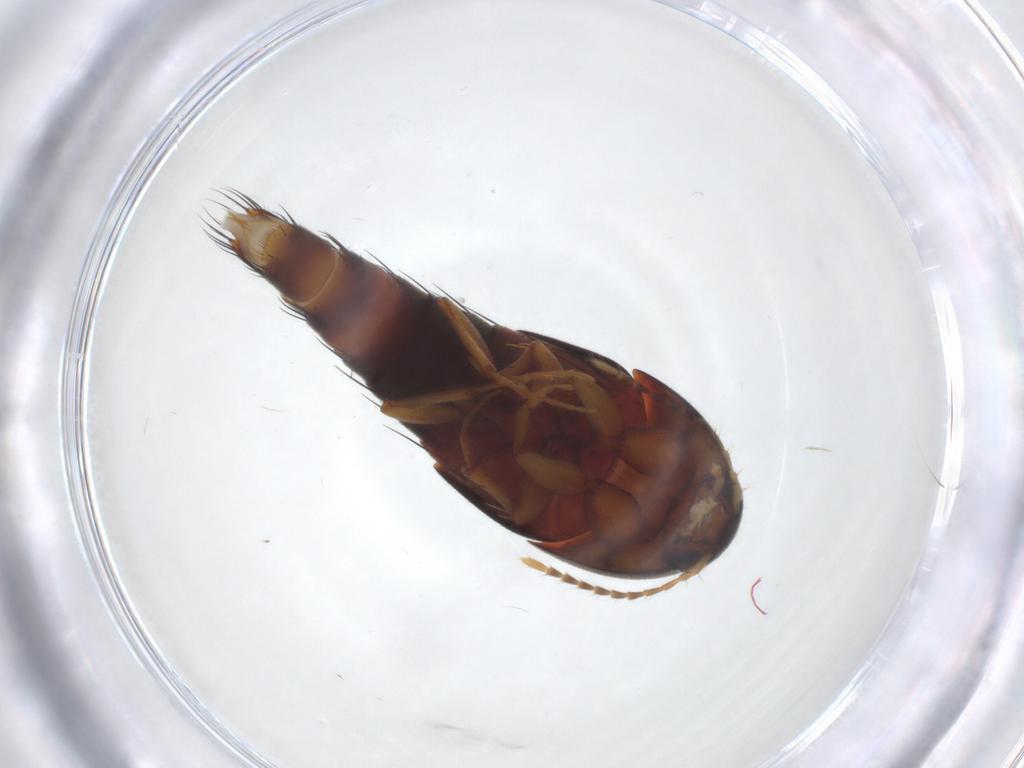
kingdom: Animalia
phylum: Arthropoda
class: Insecta
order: Coleoptera
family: Staphylinidae
